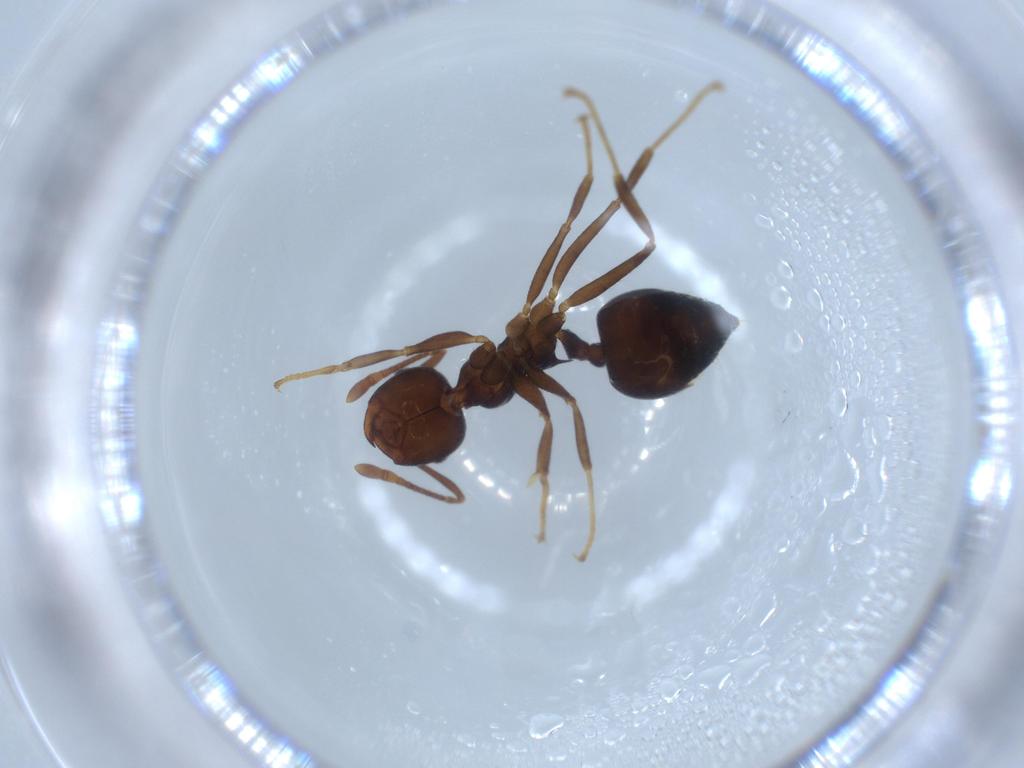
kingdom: Animalia
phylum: Arthropoda
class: Insecta
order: Hymenoptera
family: Formicidae
